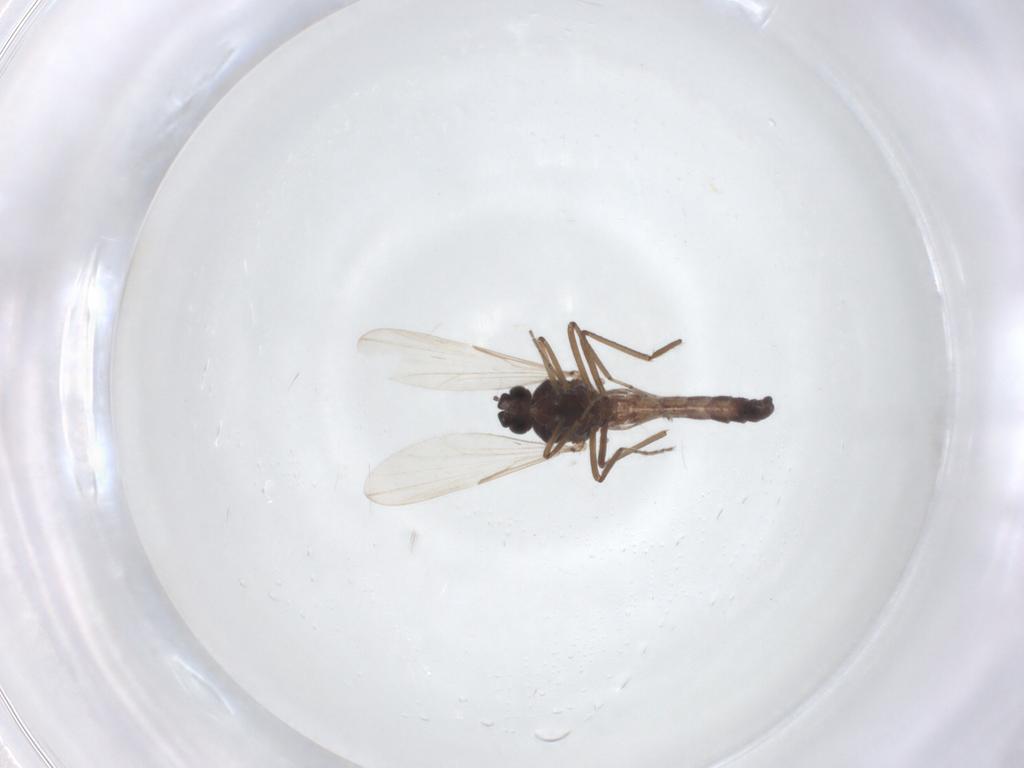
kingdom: Animalia
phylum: Arthropoda
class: Insecta
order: Diptera
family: Ceratopogonidae
